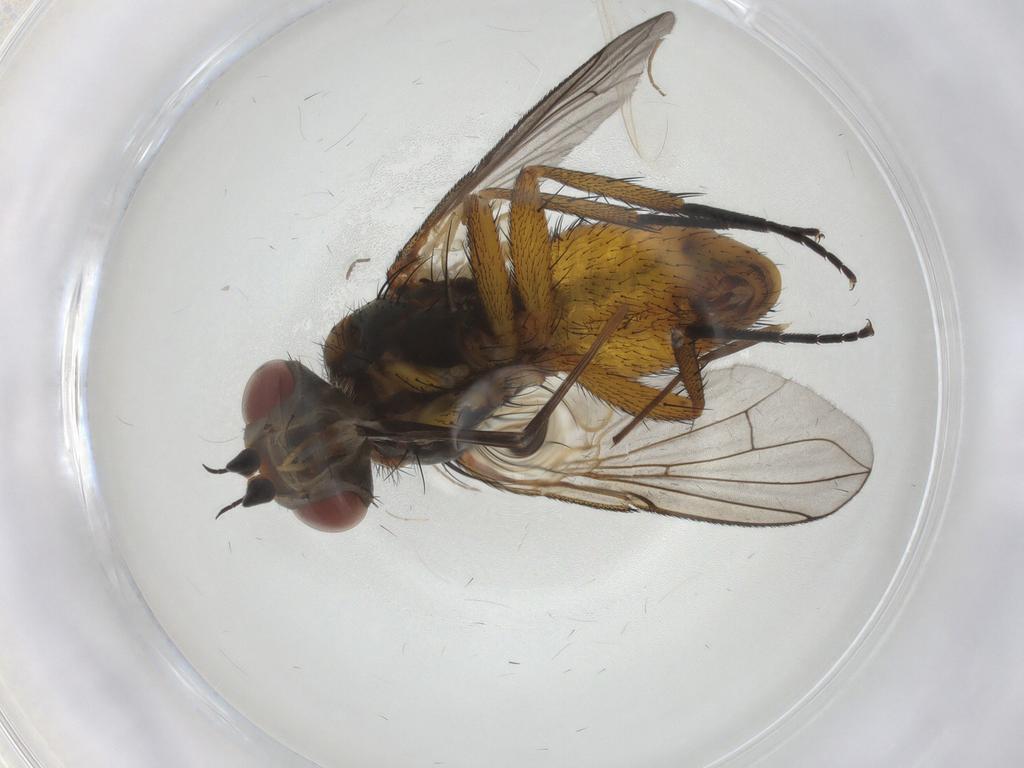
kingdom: Animalia
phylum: Arthropoda
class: Insecta
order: Diptera
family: Tachinidae
